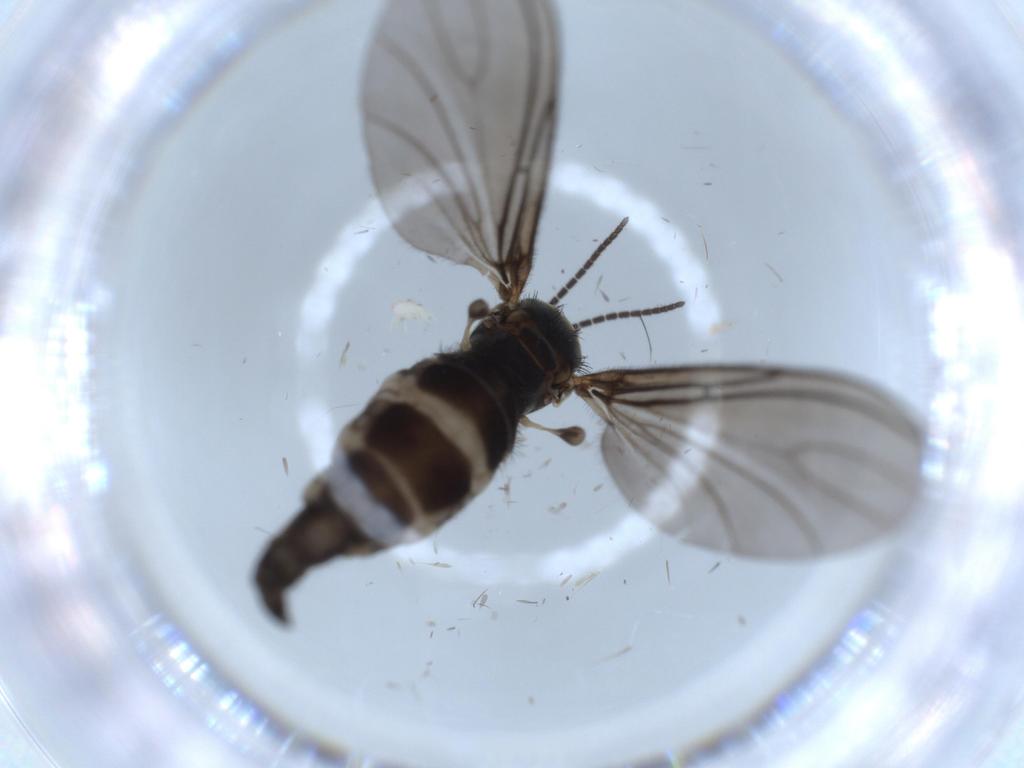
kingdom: Animalia
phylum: Arthropoda
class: Insecta
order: Diptera
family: Sciaridae
